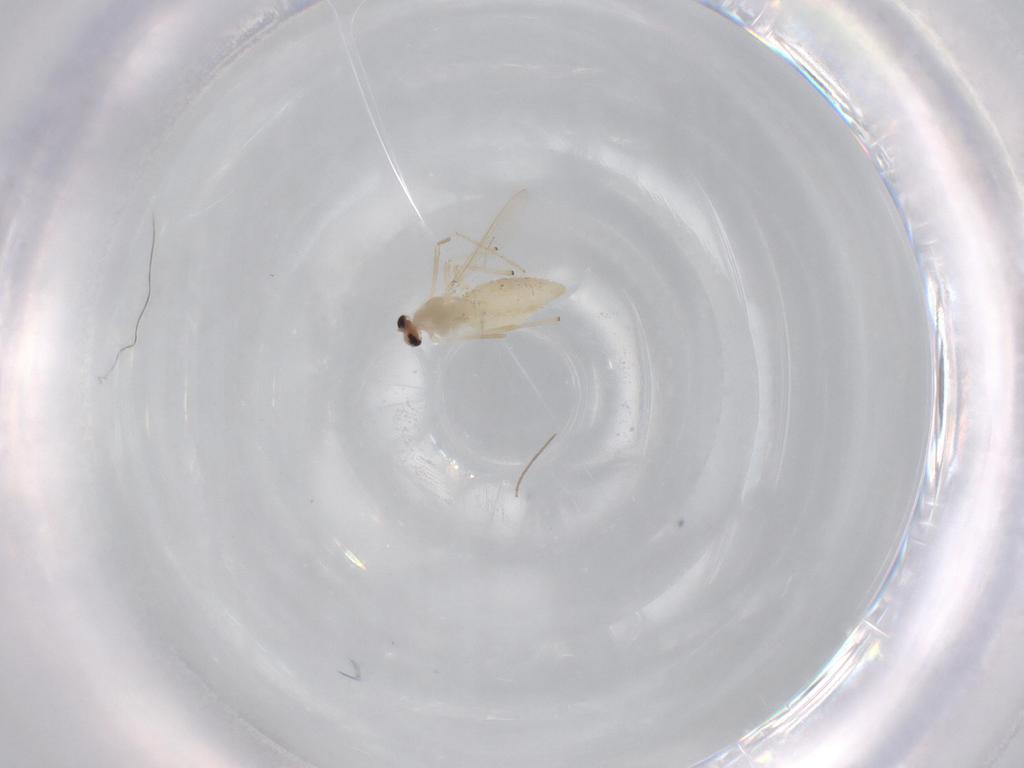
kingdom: Animalia
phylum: Arthropoda
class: Insecta
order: Diptera
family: Chironomidae
